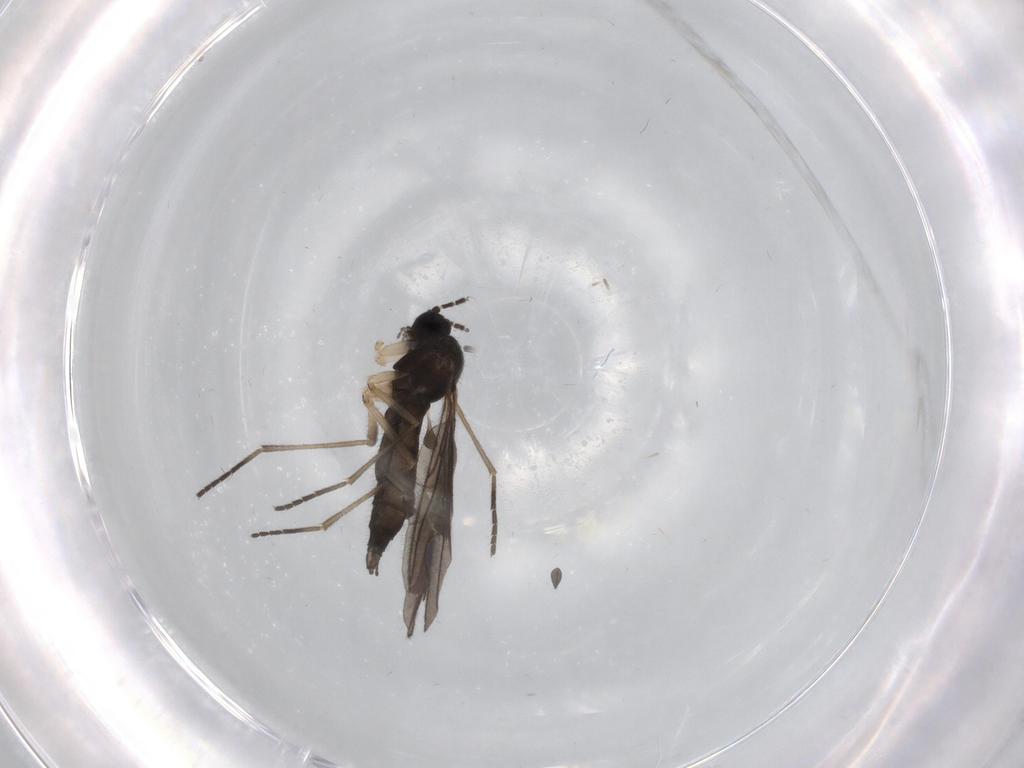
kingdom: Animalia
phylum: Arthropoda
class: Insecta
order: Diptera
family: Sciaridae
